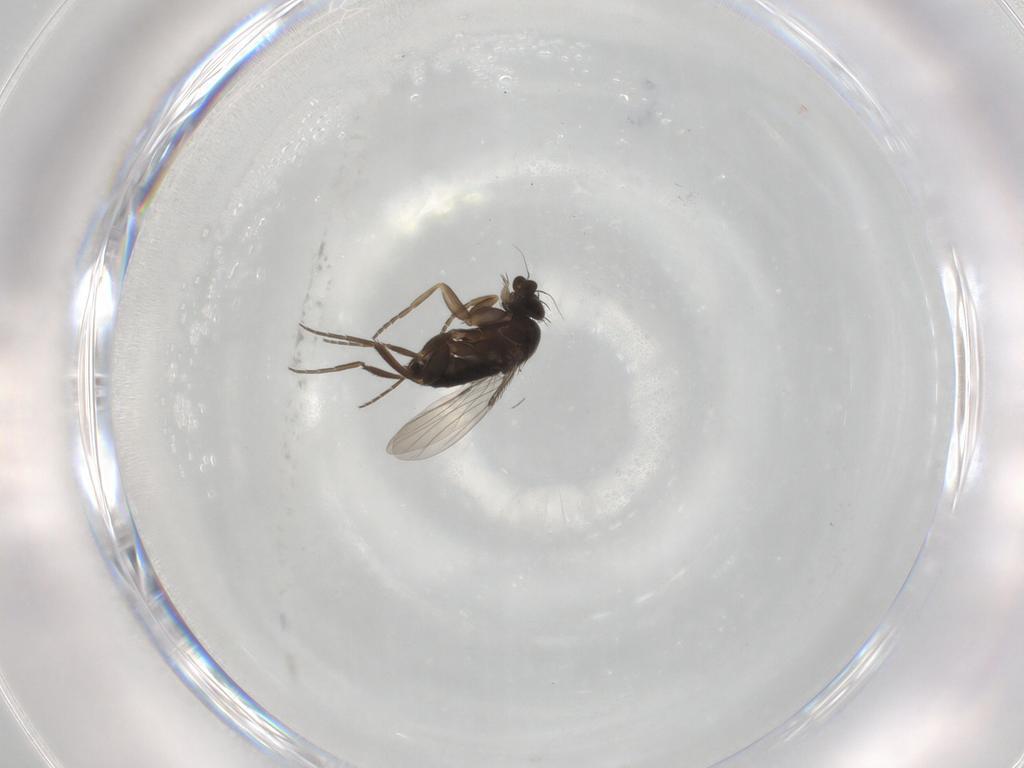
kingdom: Animalia
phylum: Arthropoda
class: Insecta
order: Diptera
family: Phoridae
